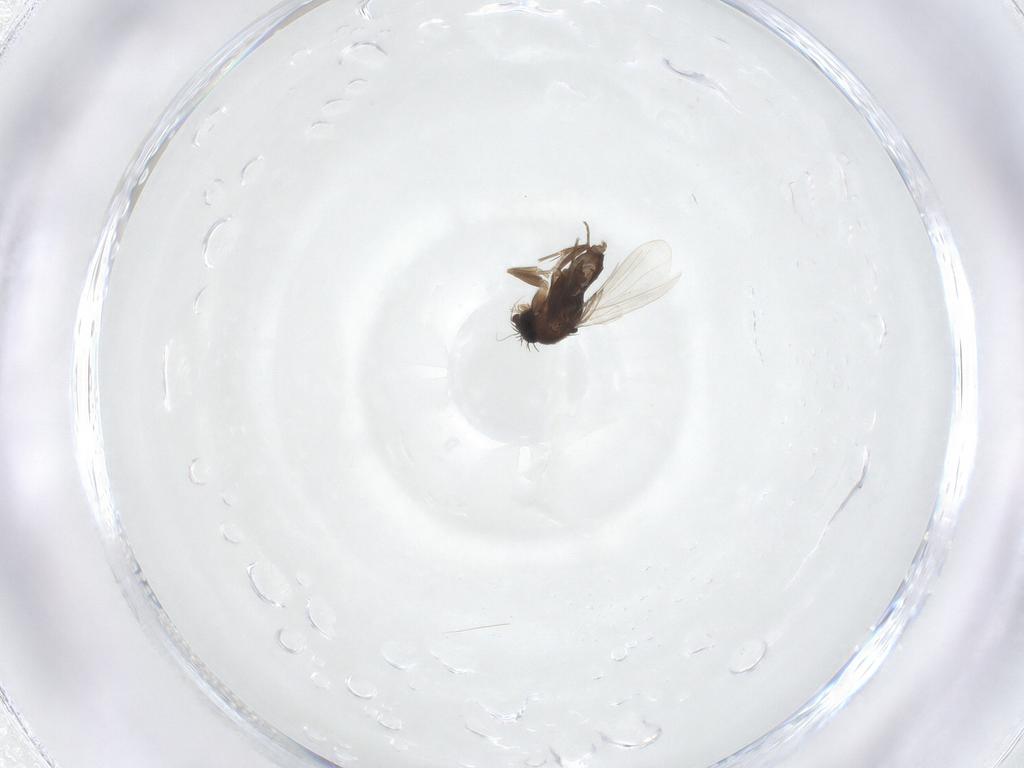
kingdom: Animalia
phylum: Arthropoda
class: Insecta
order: Diptera
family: Phoridae
